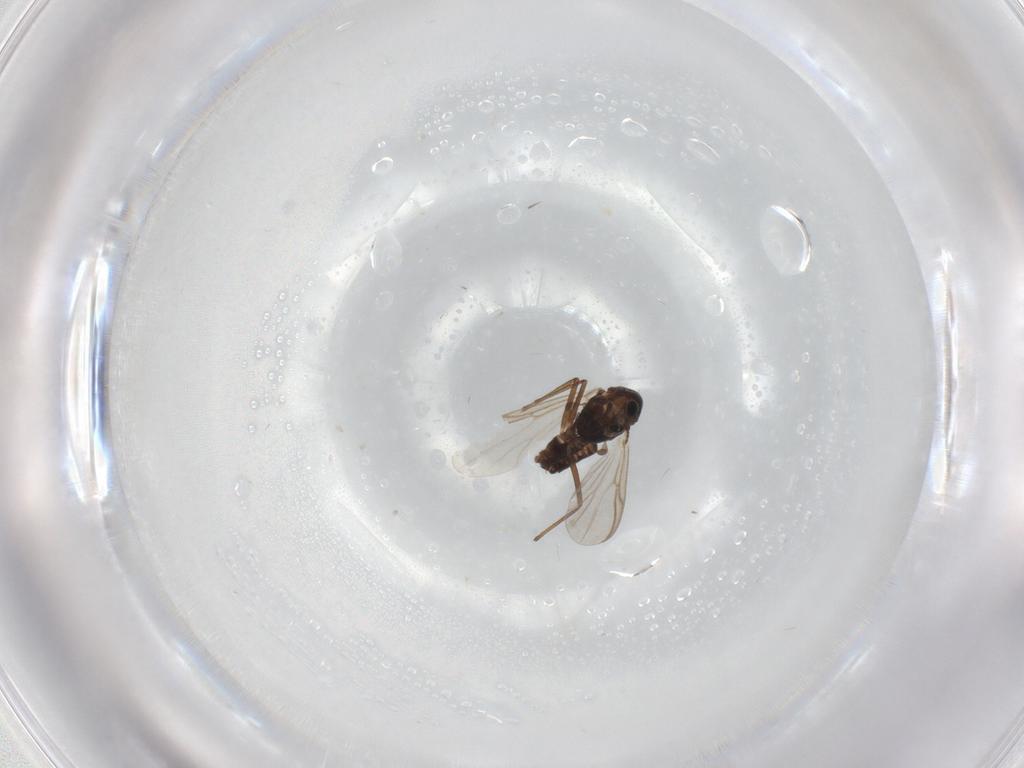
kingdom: Animalia
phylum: Arthropoda
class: Insecta
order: Diptera
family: Chironomidae
